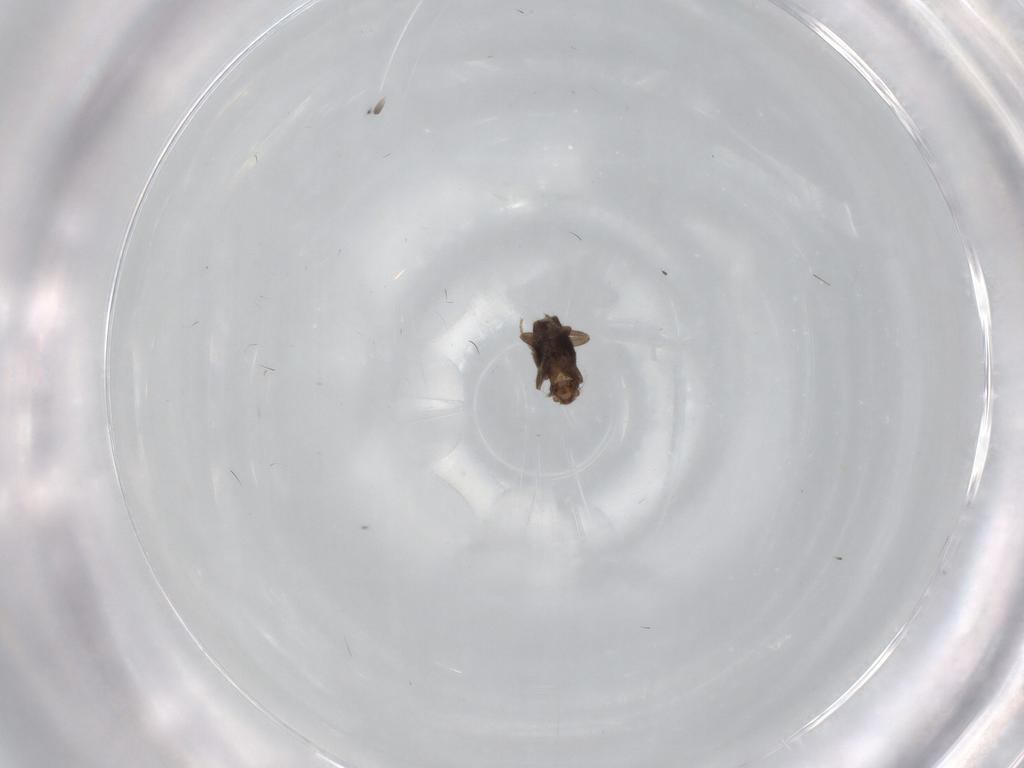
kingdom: Animalia
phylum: Arthropoda
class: Insecta
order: Diptera
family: Phoridae
